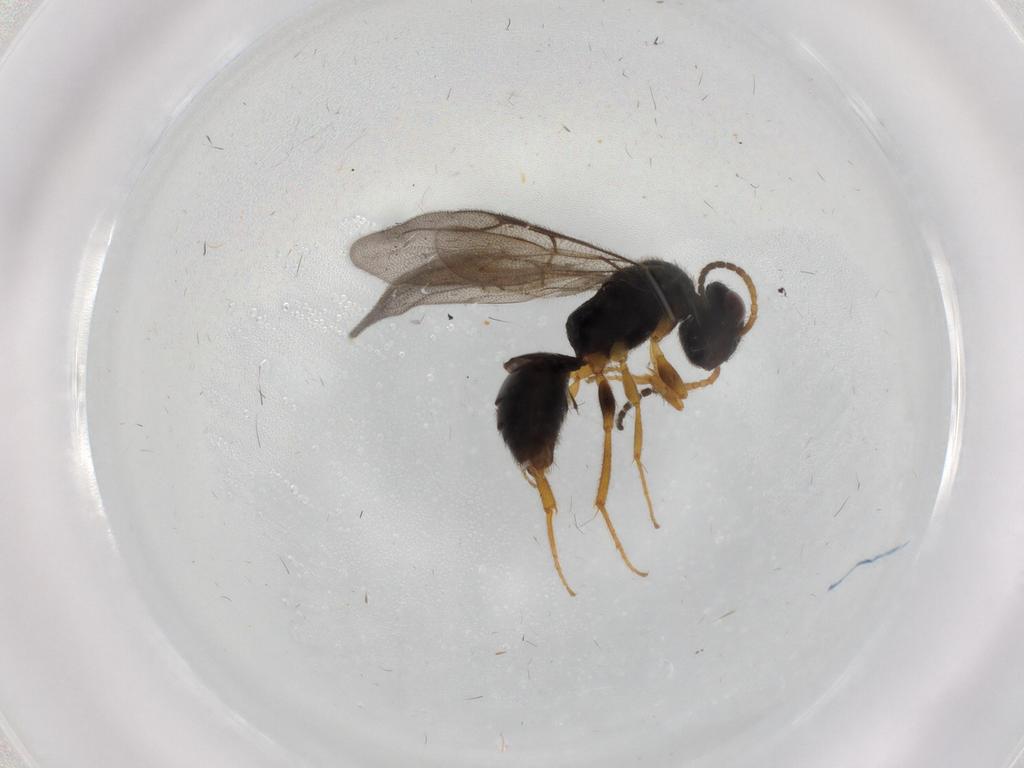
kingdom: Animalia
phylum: Arthropoda
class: Insecta
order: Hymenoptera
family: Bethylidae
